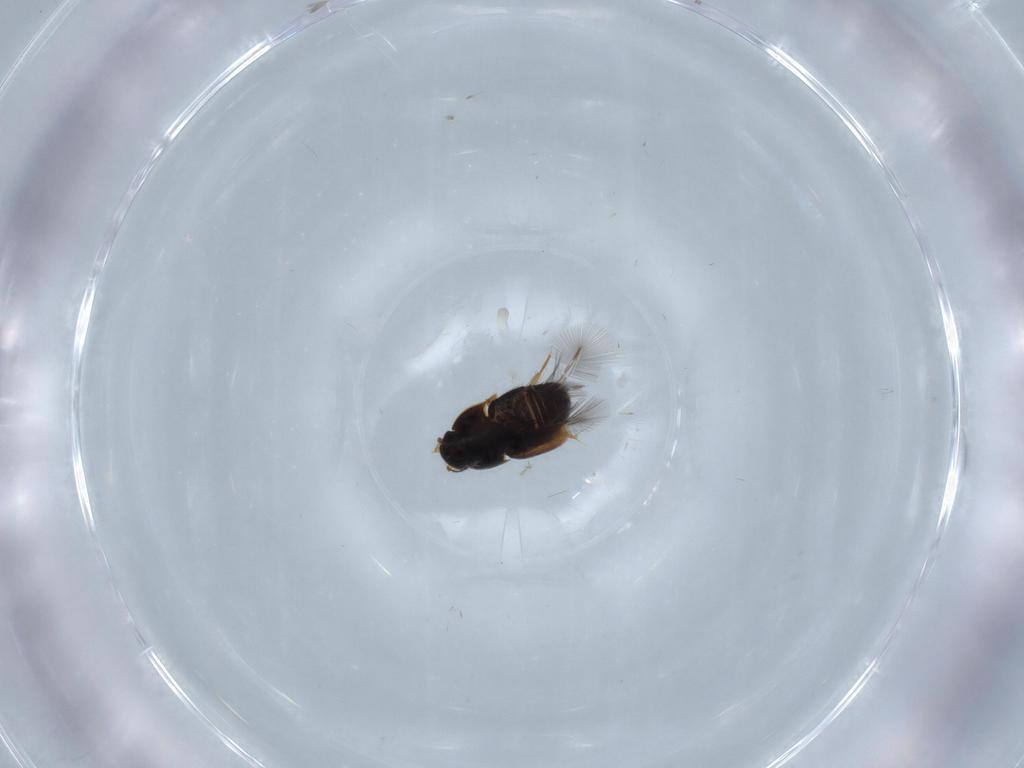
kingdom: Animalia
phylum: Arthropoda
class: Insecta
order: Coleoptera
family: Ptiliidae
